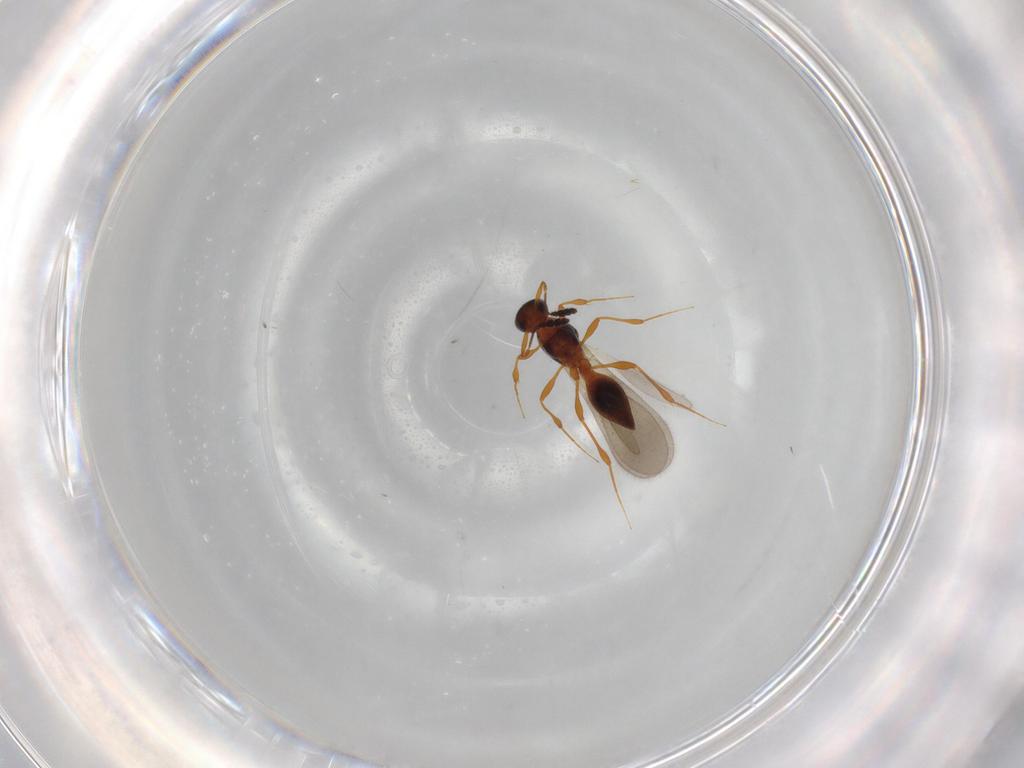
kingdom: Animalia
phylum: Arthropoda
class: Insecta
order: Hymenoptera
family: Platygastridae
